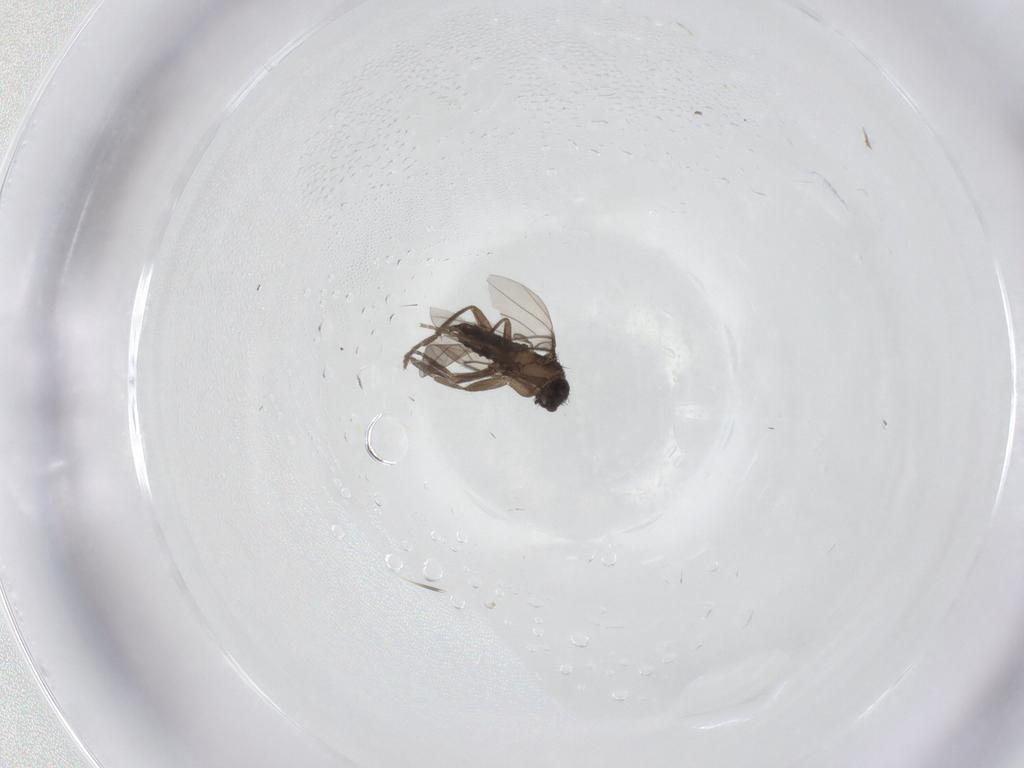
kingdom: Animalia
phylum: Arthropoda
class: Insecta
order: Diptera
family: Phoridae
